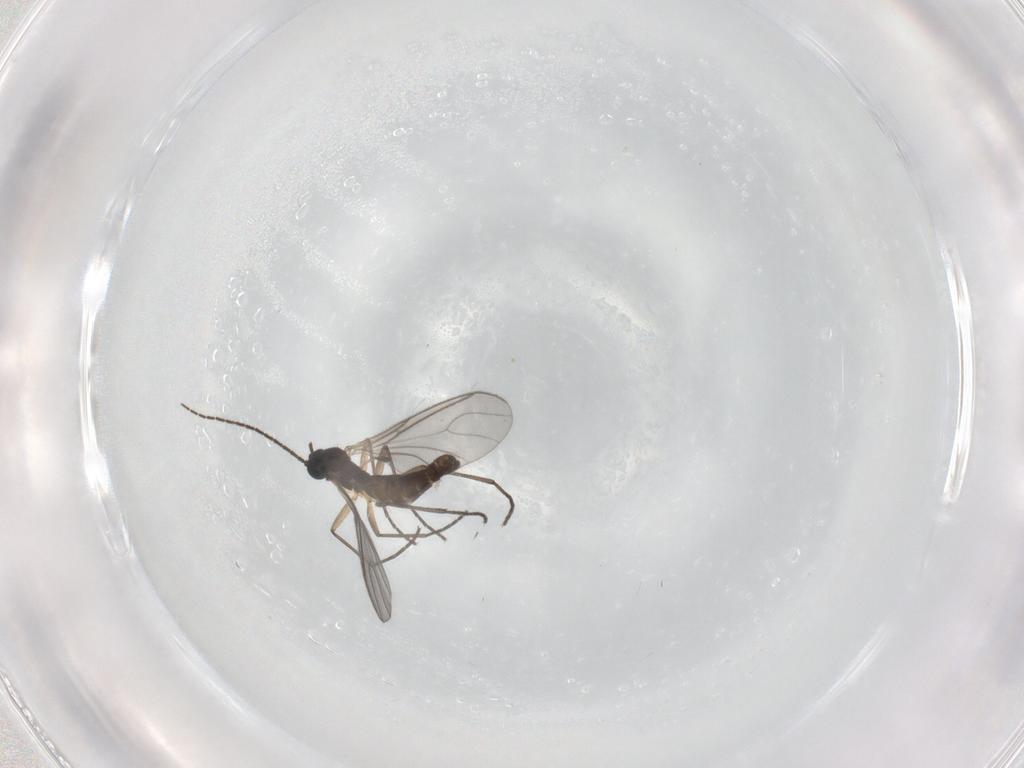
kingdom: Animalia
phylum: Arthropoda
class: Insecta
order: Diptera
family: Sciaridae
